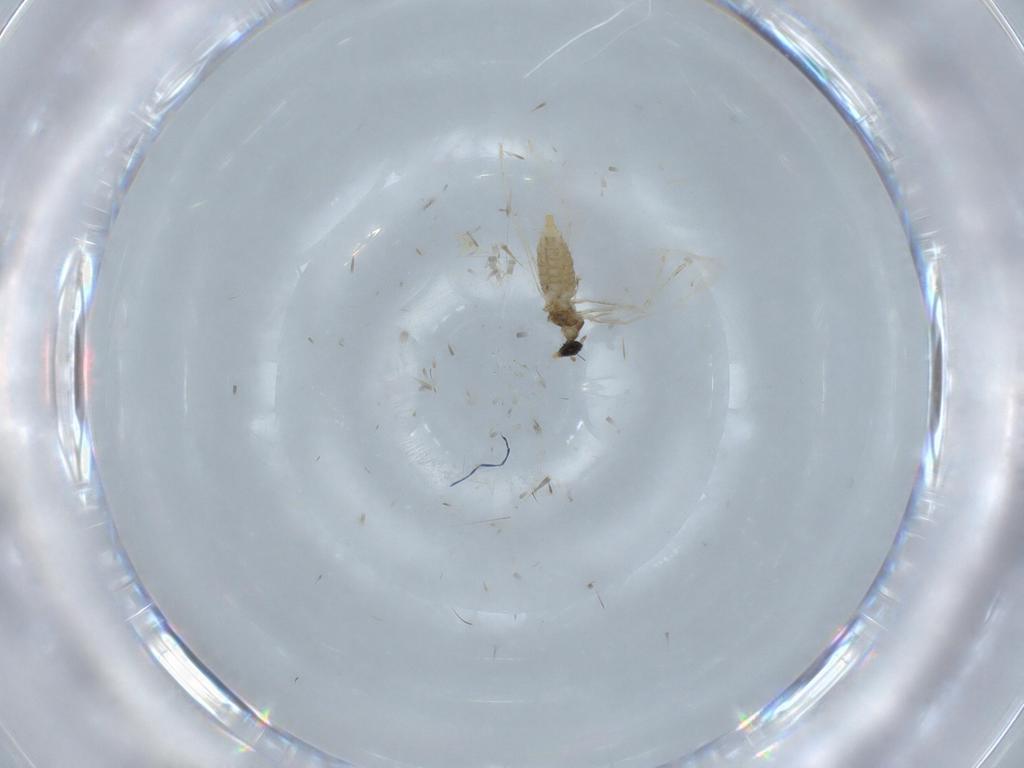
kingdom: Animalia
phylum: Arthropoda
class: Insecta
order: Diptera
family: Cecidomyiidae
